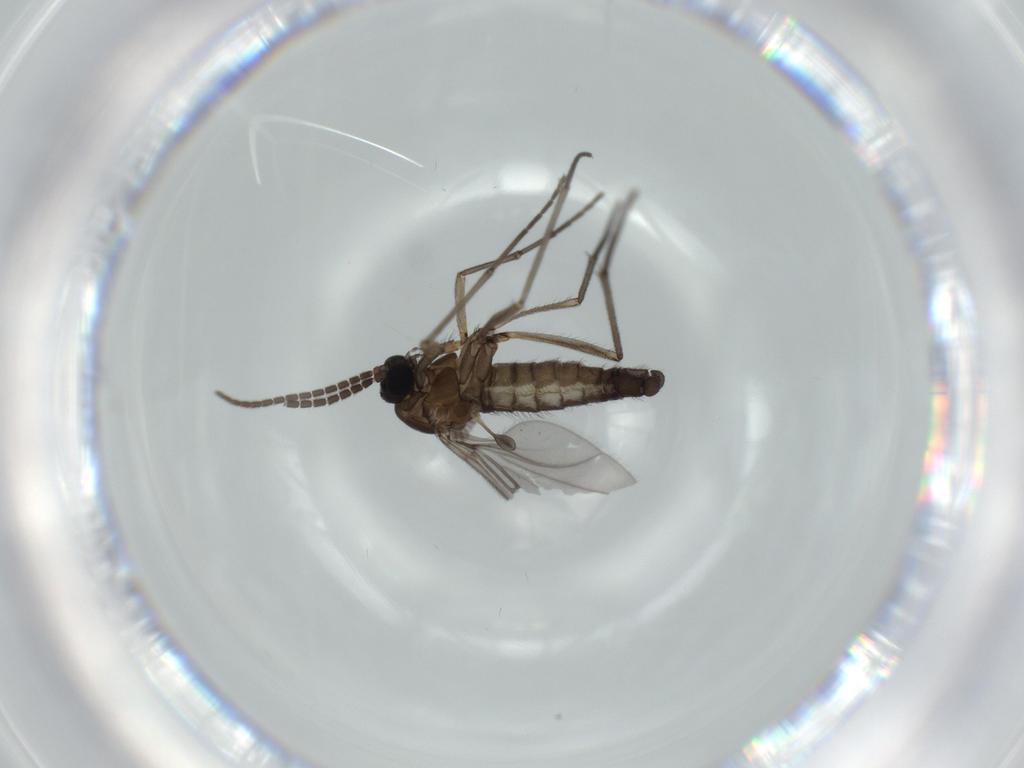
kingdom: Animalia
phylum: Arthropoda
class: Insecta
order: Diptera
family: Sciaridae
